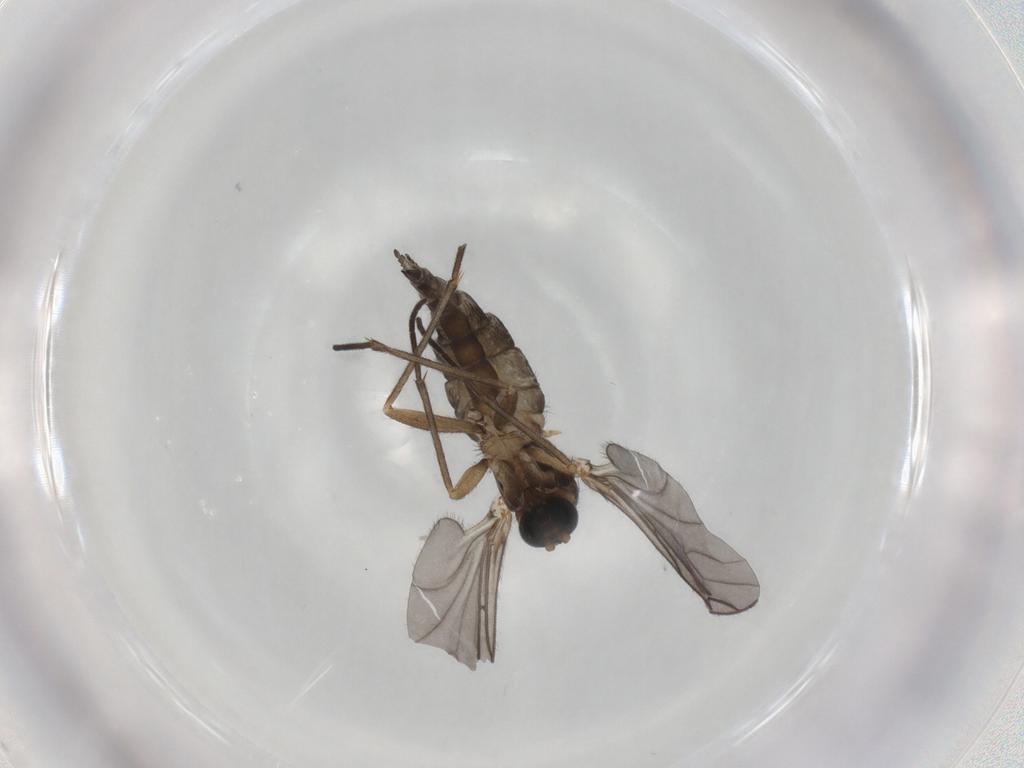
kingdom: Animalia
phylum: Arthropoda
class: Insecta
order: Diptera
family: Sciaridae
